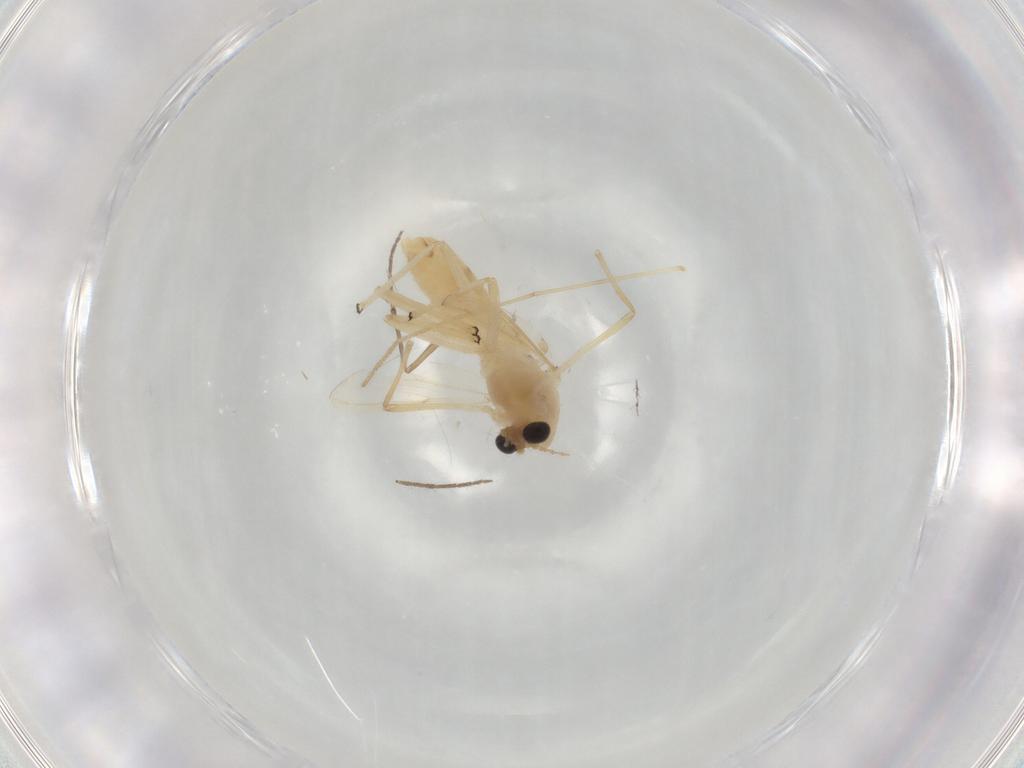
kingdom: Animalia
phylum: Arthropoda
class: Insecta
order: Diptera
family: Chironomidae
